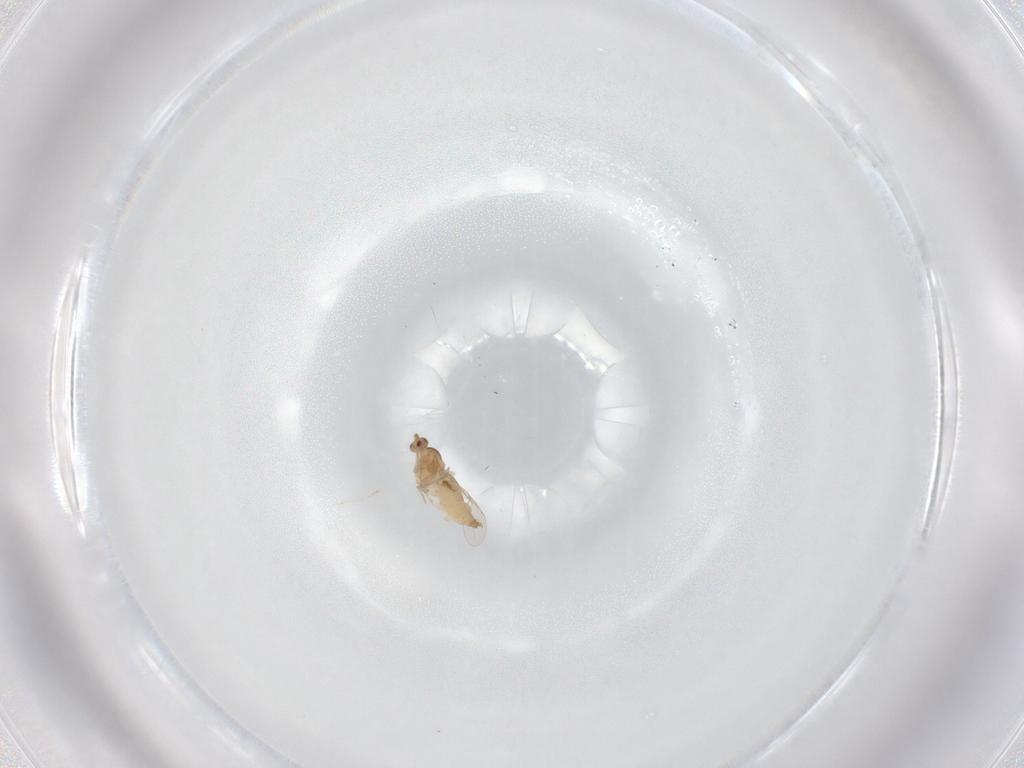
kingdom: Animalia
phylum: Arthropoda
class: Insecta
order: Diptera
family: Cecidomyiidae
